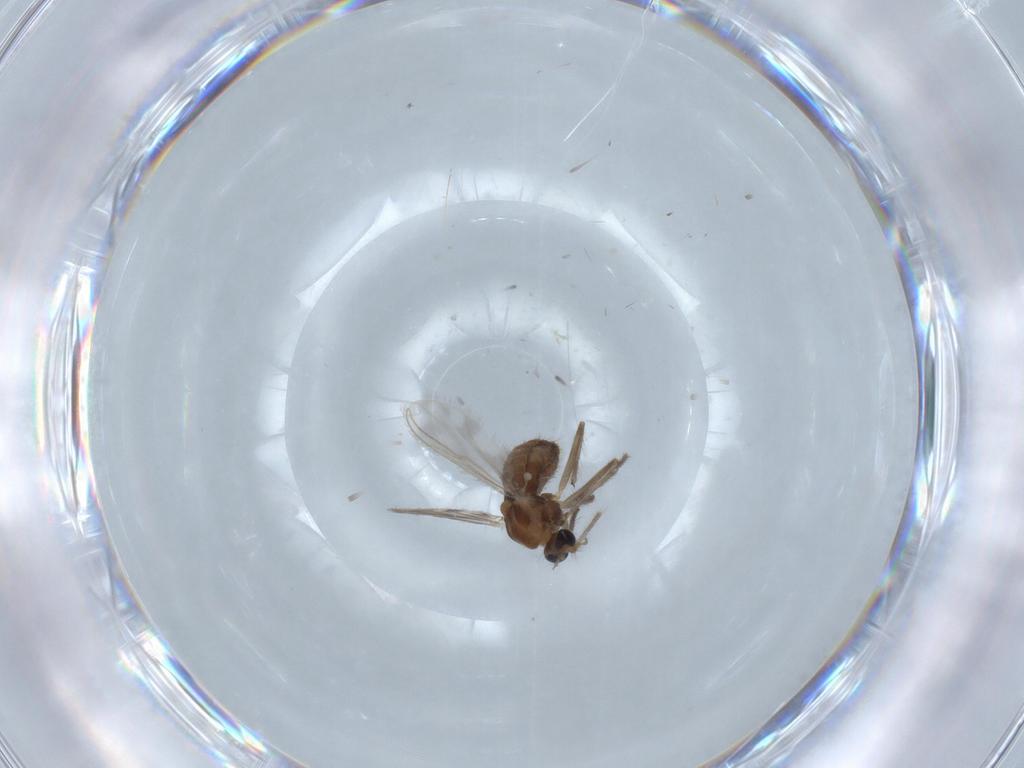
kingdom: Animalia
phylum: Arthropoda
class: Insecta
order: Diptera
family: Chironomidae
